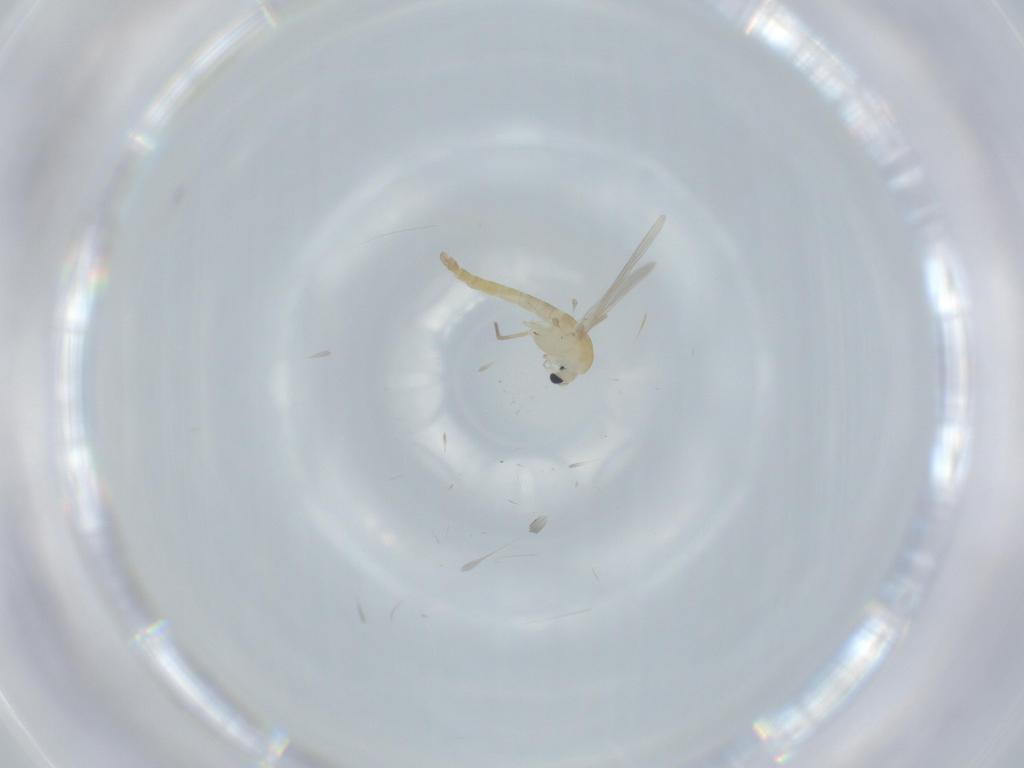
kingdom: Animalia
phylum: Arthropoda
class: Insecta
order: Diptera
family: Chironomidae
